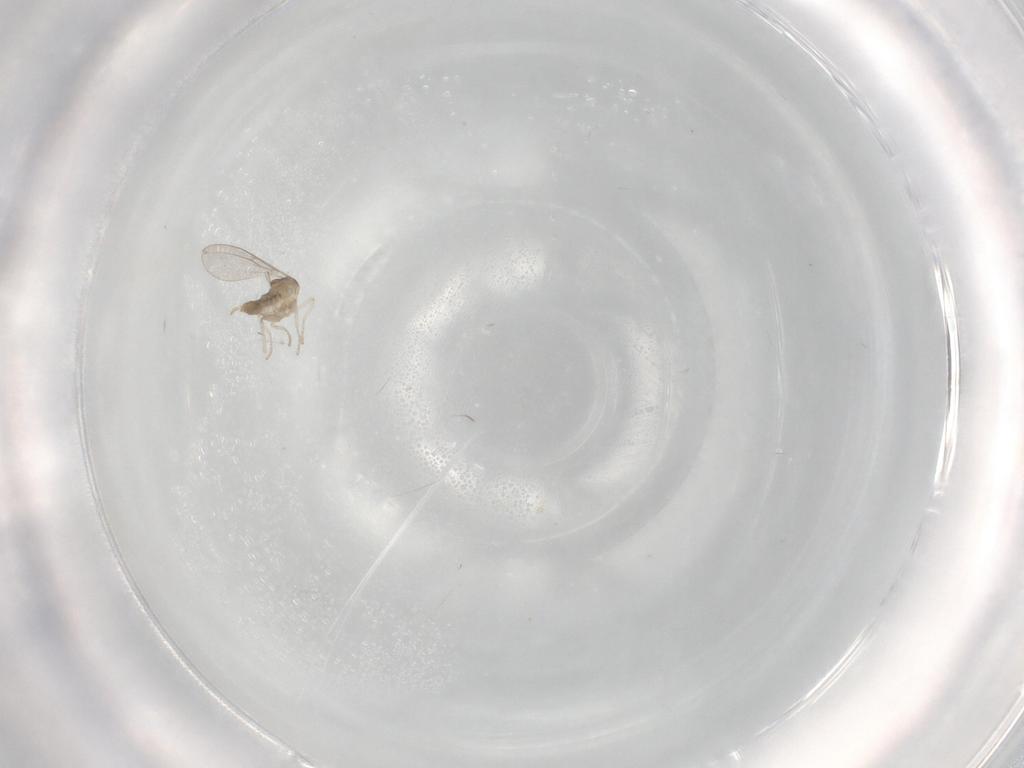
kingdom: Animalia
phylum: Arthropoda
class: Insecta
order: Diptera
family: Cecidomyiidae
